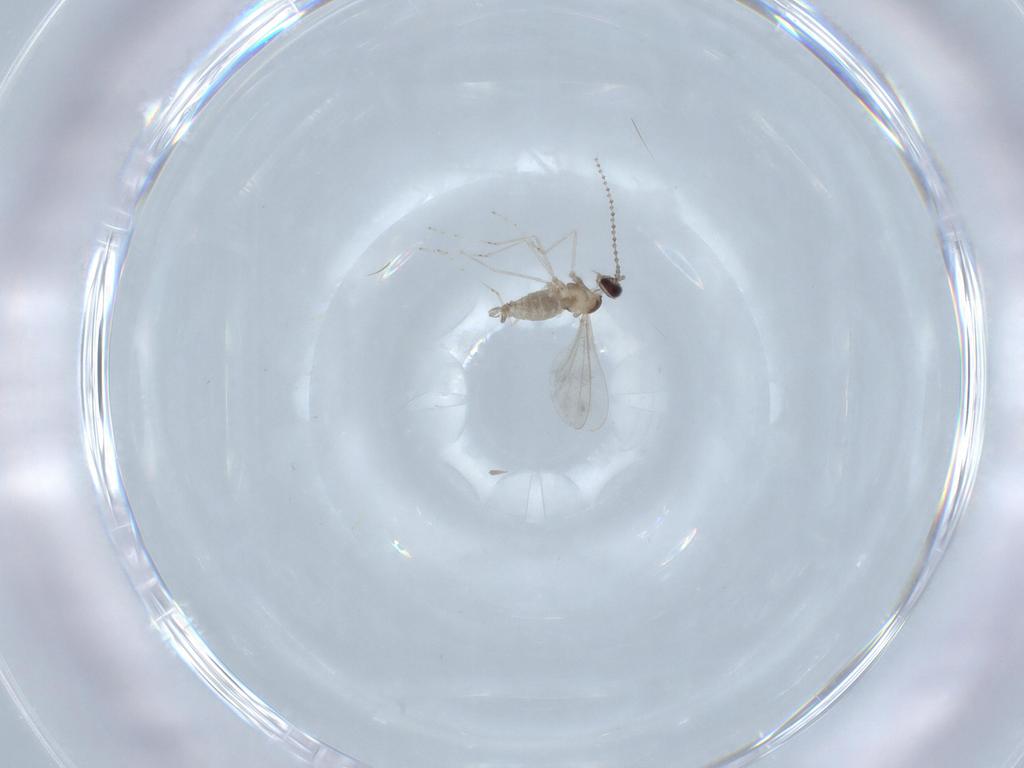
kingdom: Animalia
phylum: Arthropoda
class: Insecta
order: Diptera
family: Cecidomyiidae
